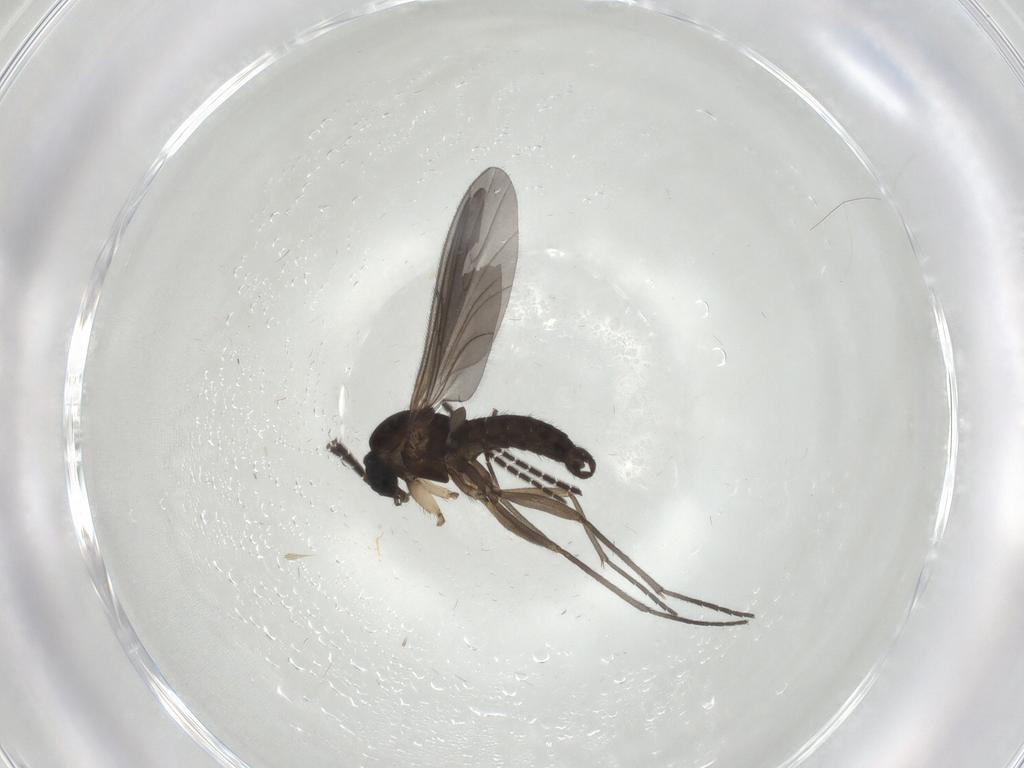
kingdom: Animalia
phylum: Arthropoda
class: Insecta
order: Diptera
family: Sciaridae
